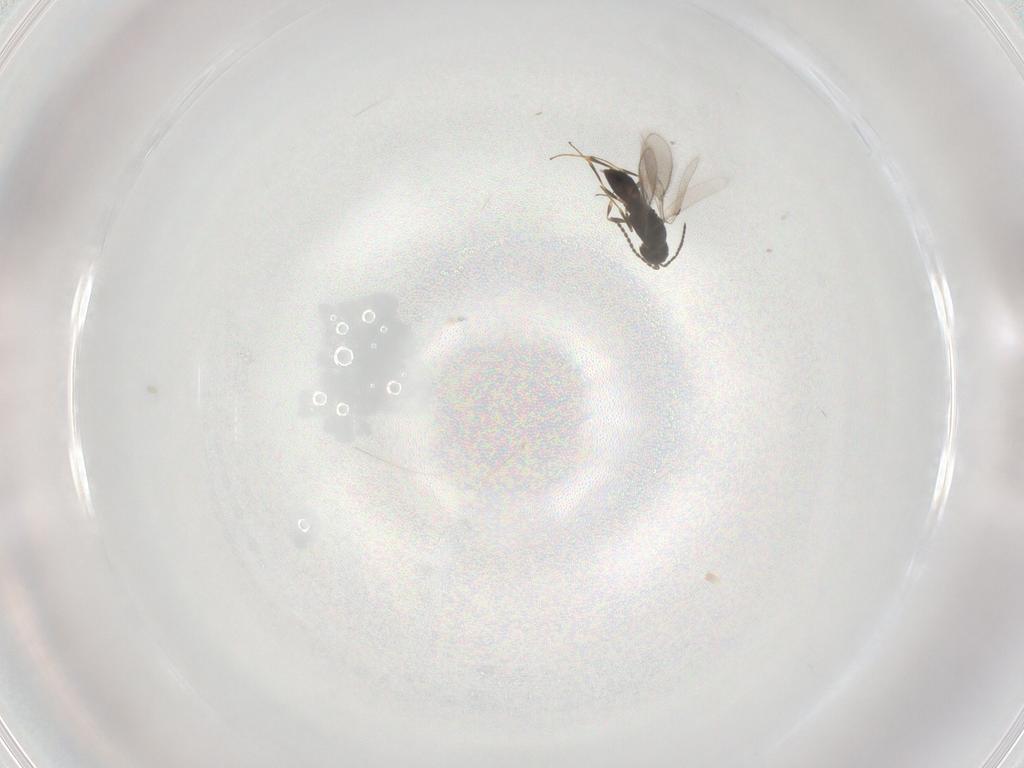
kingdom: Animalia
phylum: Arthropoda
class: Insecta
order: Hymenoptera
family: Scelionidae
